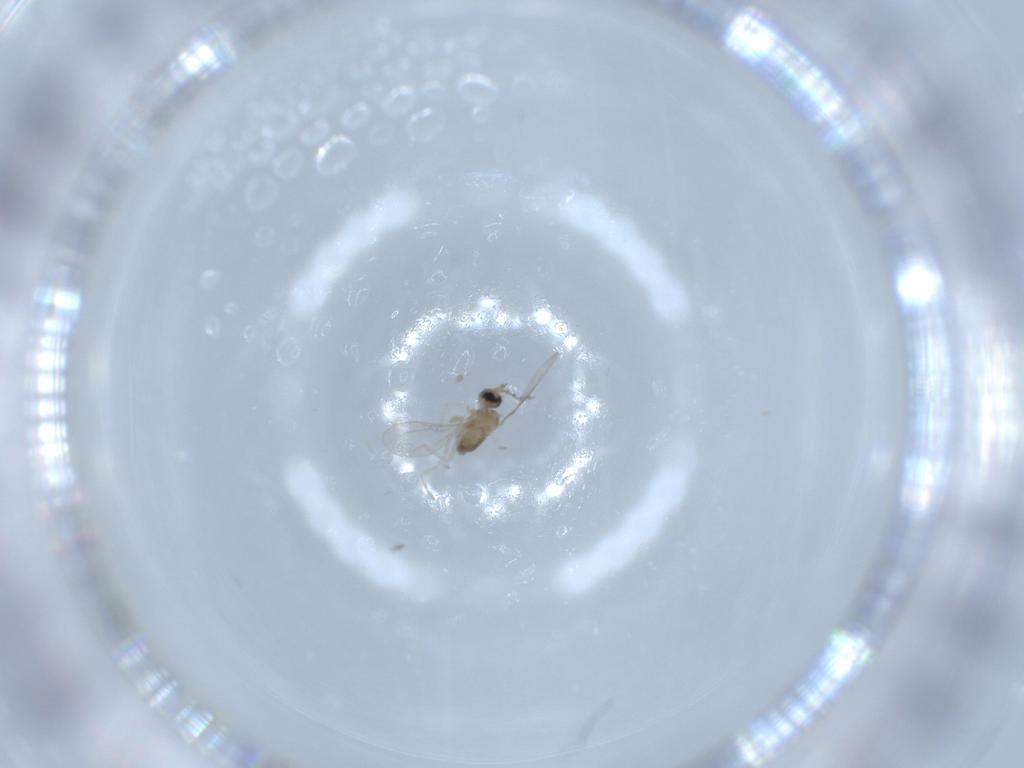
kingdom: Animalia
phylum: Arthropoda
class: Insecta
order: Diptera
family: Cecidomyiidae
